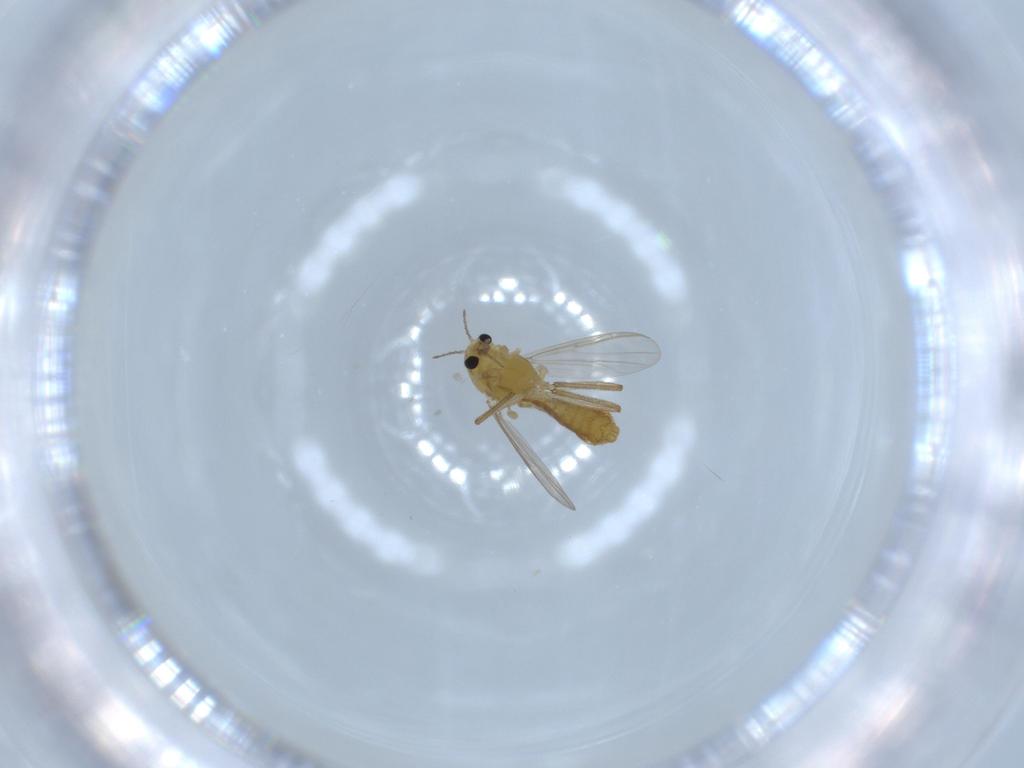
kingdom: Animalia
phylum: Arthropoda
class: Insecta
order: Diptera
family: Chironomidae
